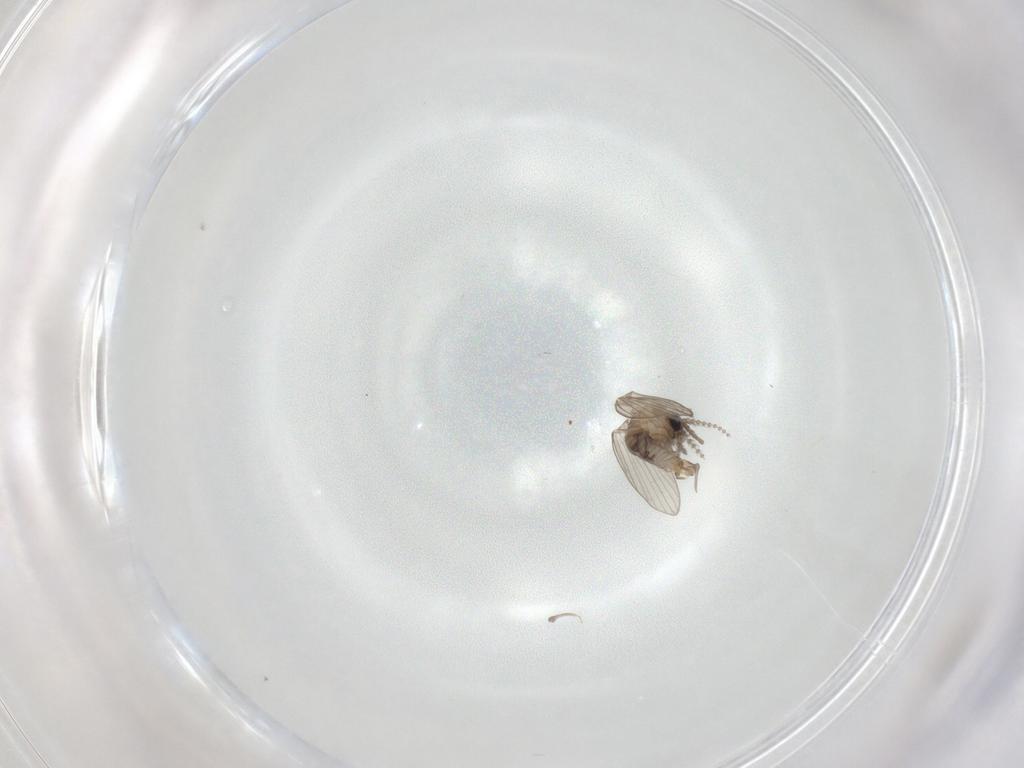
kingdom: Animalia
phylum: Arthropoda
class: Insecta
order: Diptera
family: Psychodidae
